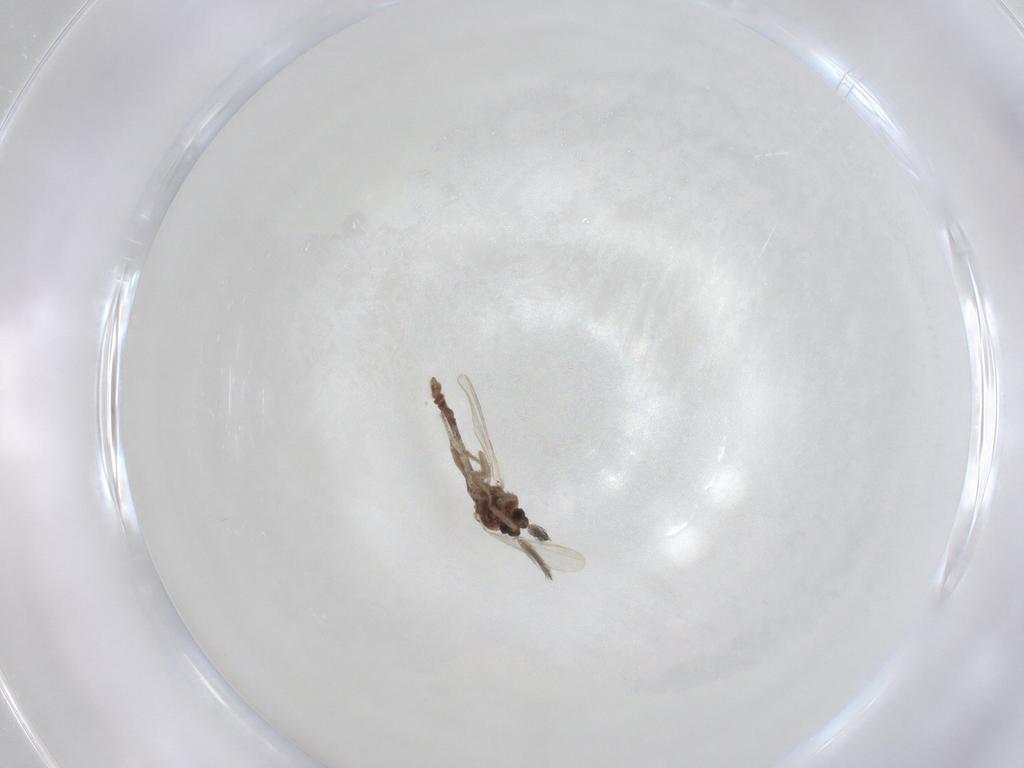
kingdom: Animalia
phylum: Arthropoda
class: Insecta
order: Diptera
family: Ceratopogonidae
